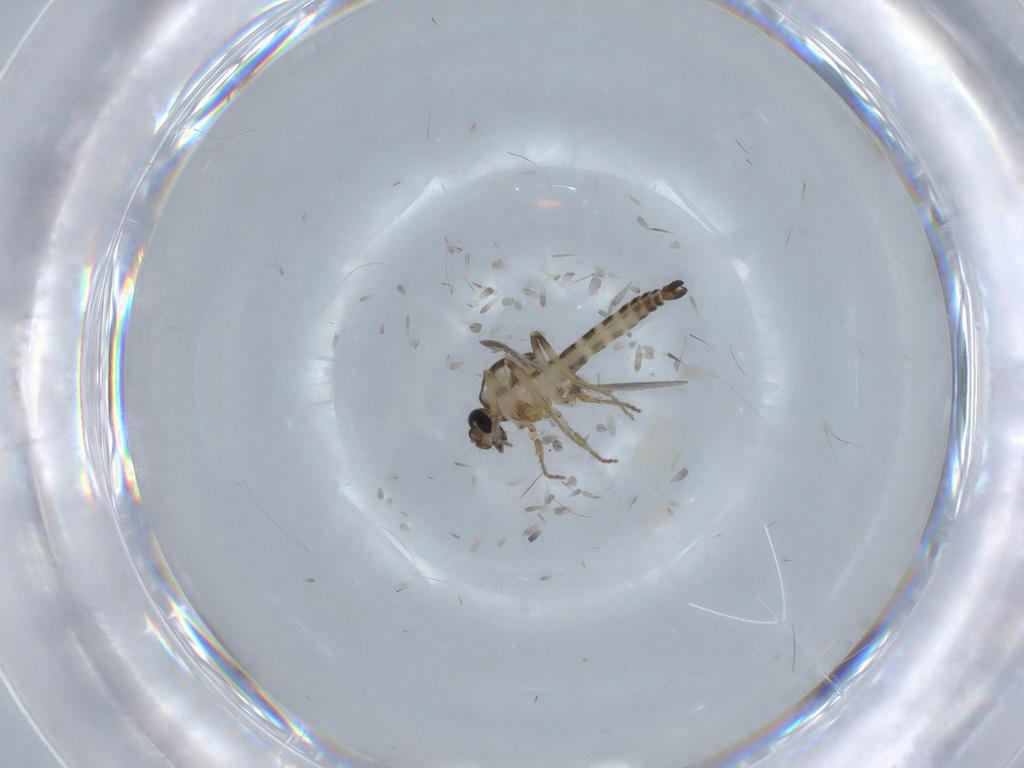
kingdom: Animalia
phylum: Arthropoda
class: Insecta
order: Diptera
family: Ceratopogonidae
